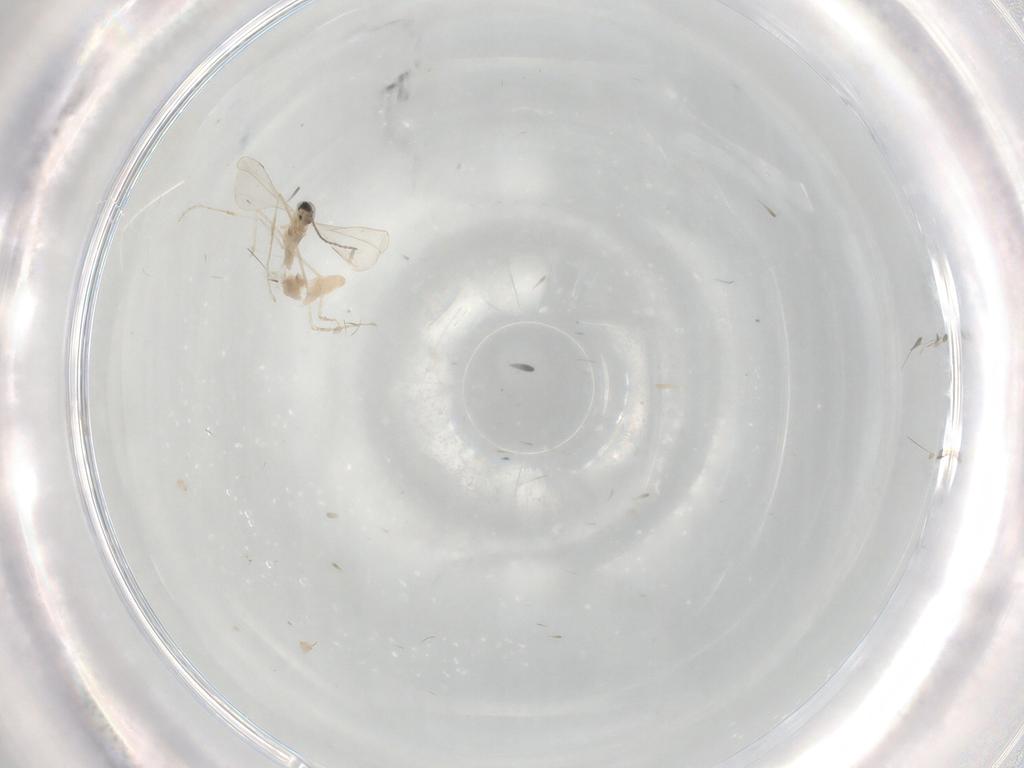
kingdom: Animalia
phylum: Arthropoda
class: Insecta
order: Diptera
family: Cecidomyiidae
